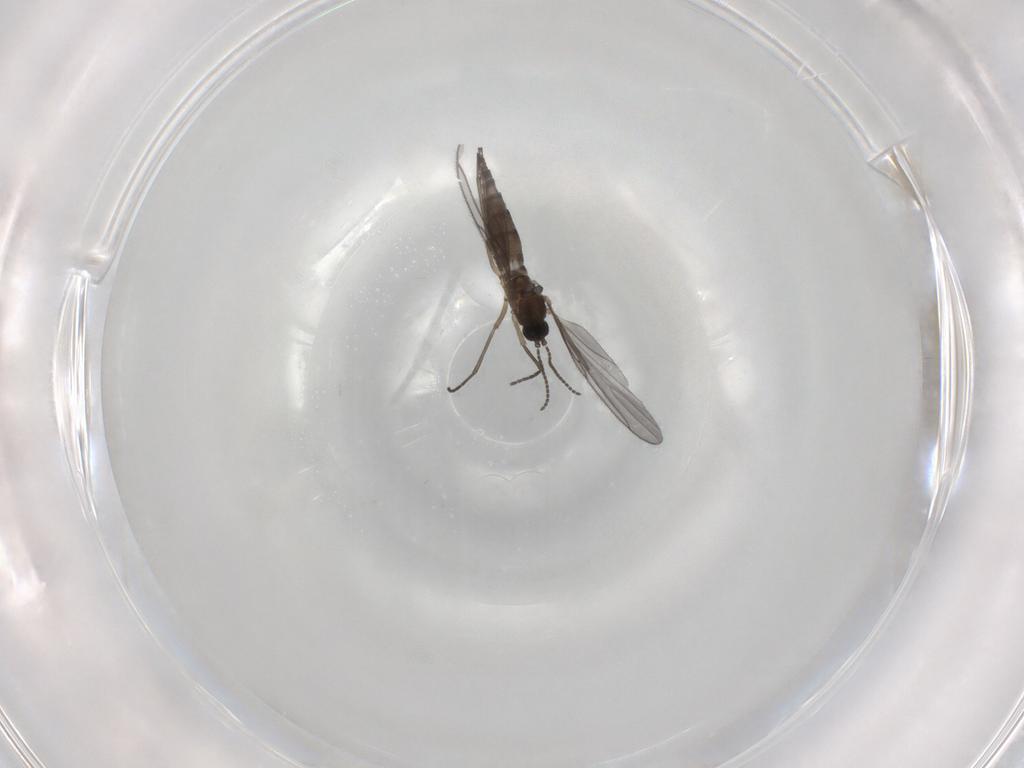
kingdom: Animalia
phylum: Arthropoda
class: Insecta
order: Diptera
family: Sciaridae
